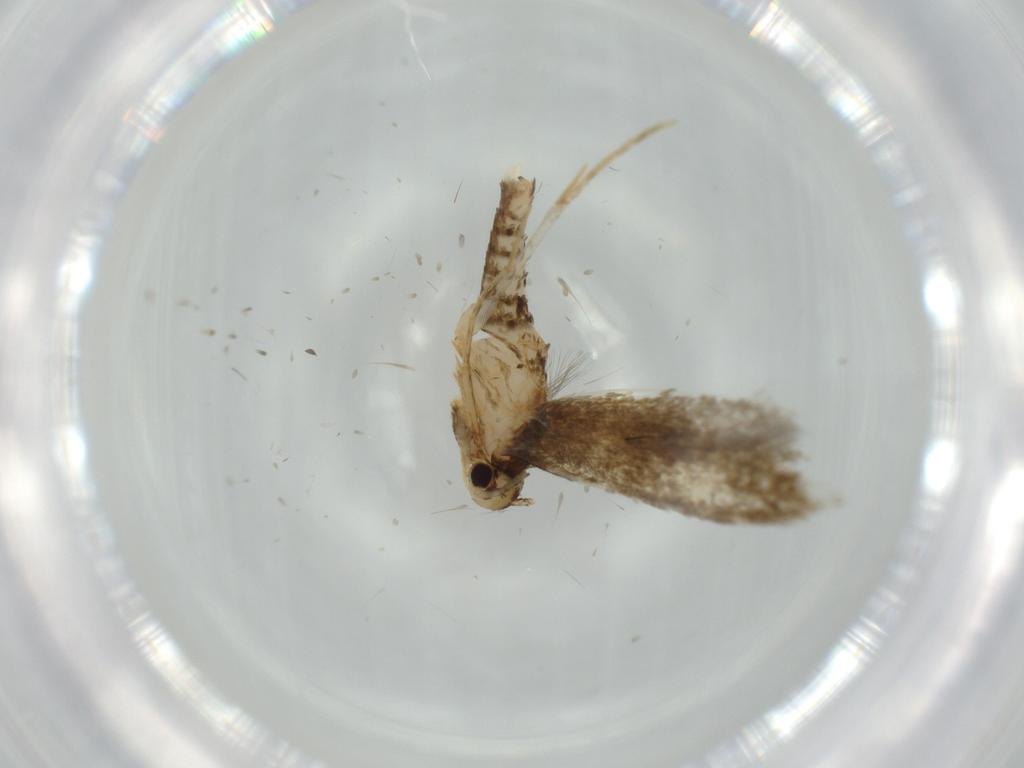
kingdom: Animalia
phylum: Arthropoda
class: Insecta
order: Lepidoptera
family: Tineidae
